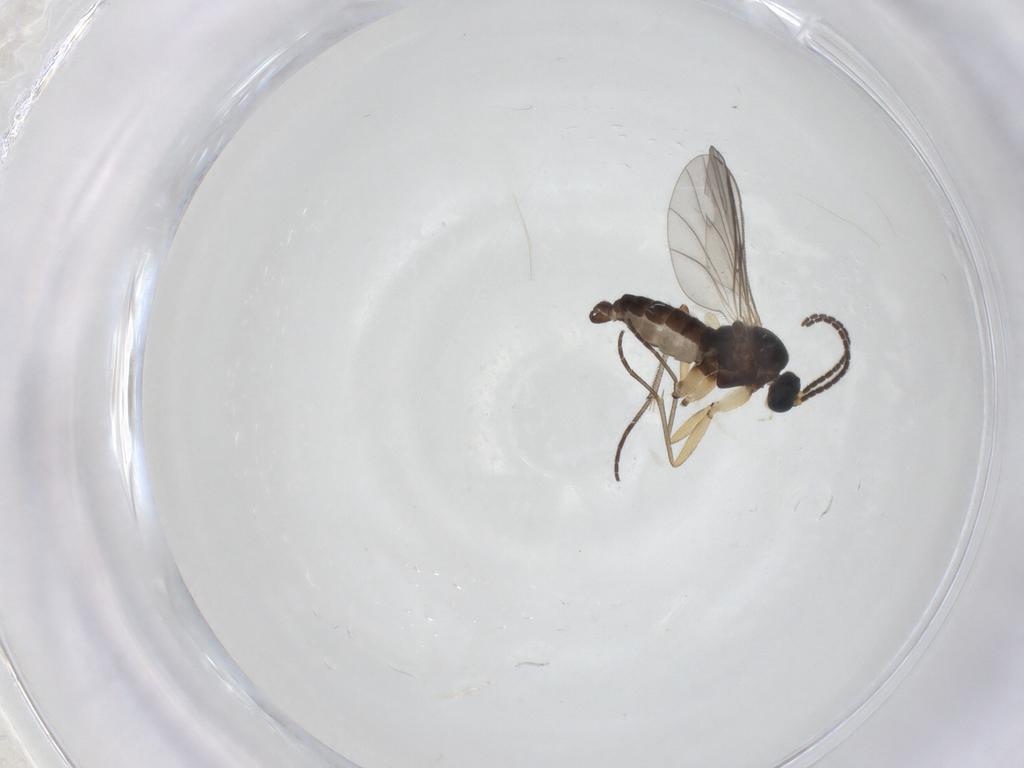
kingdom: Animalia
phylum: Arthropoda
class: Insecta
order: Diptera
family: Sciaridae
